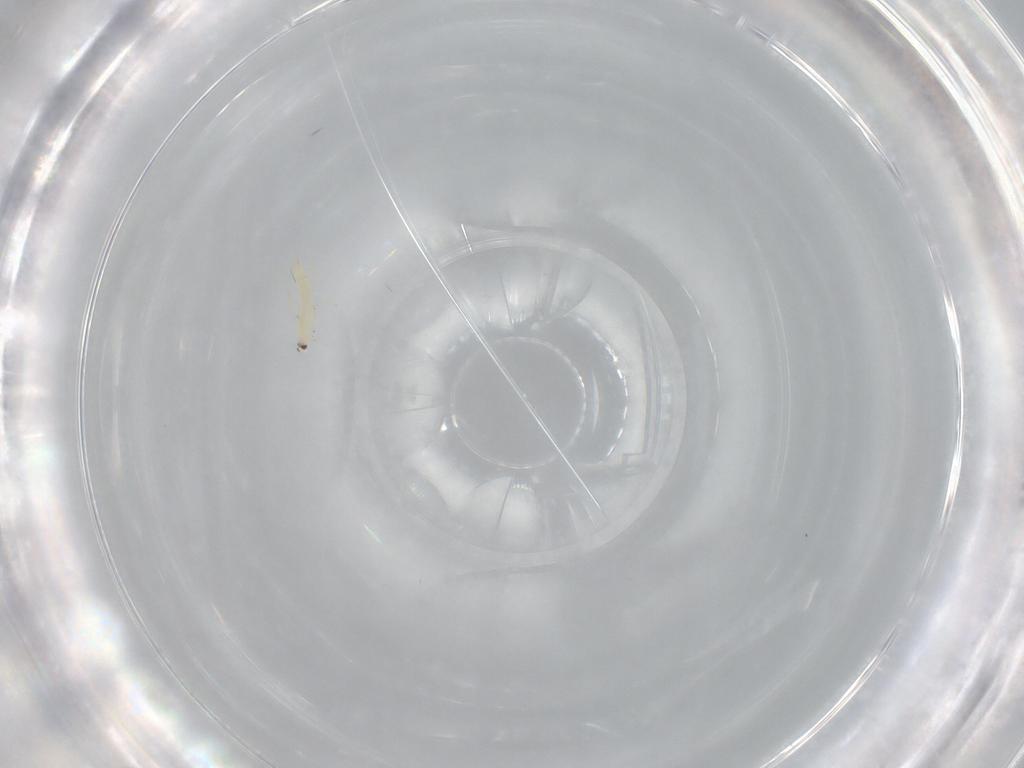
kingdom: Animalia
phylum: Arthropoda
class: Insecta
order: Thysanoptera
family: Thripidae
